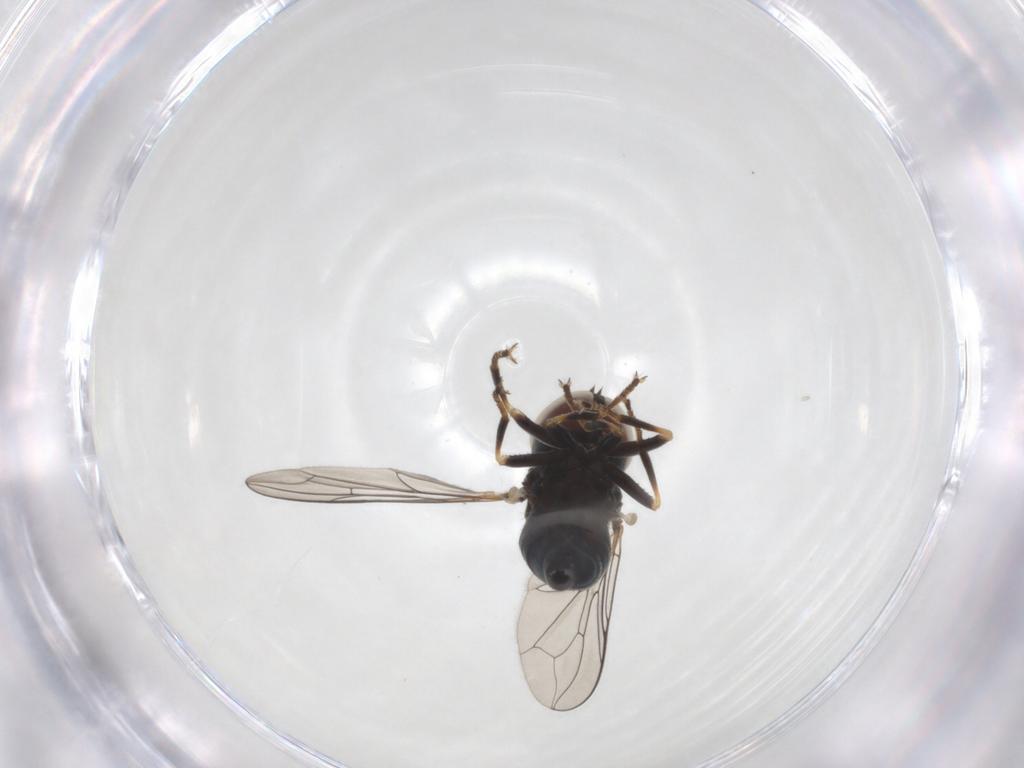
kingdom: Animalia
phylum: Arthropoda
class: Insecta
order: Diptera
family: Pipunculidae
